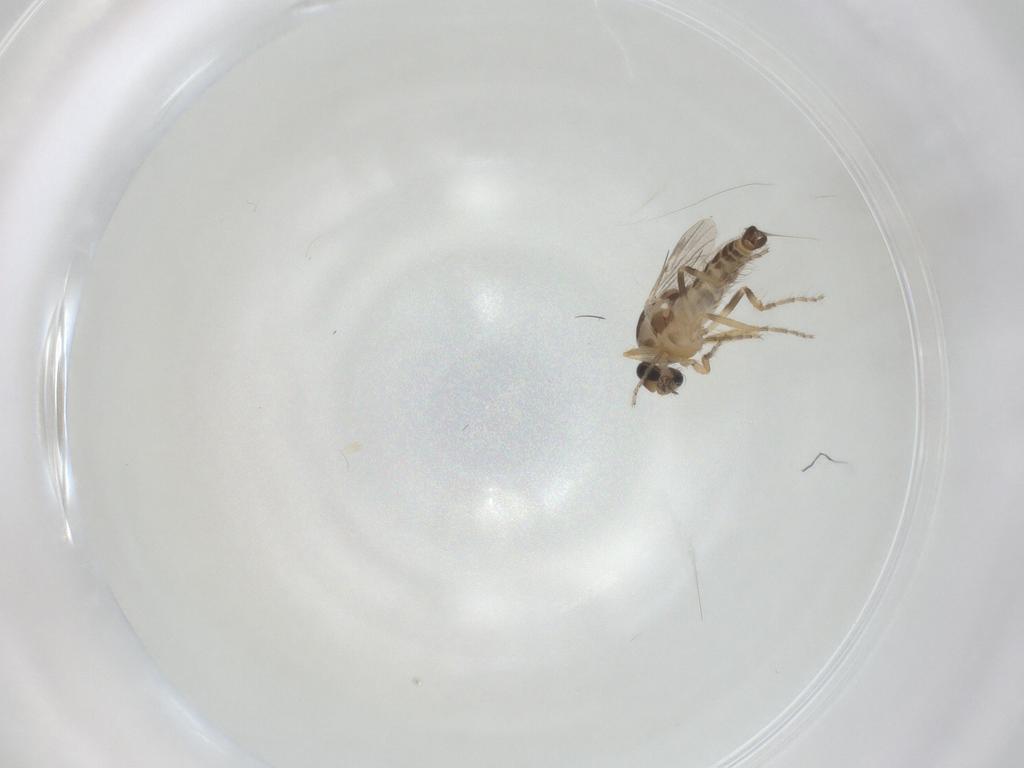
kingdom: Animalia
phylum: Arthropoda
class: Insecta
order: Diptera
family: Ceratopogonidae
